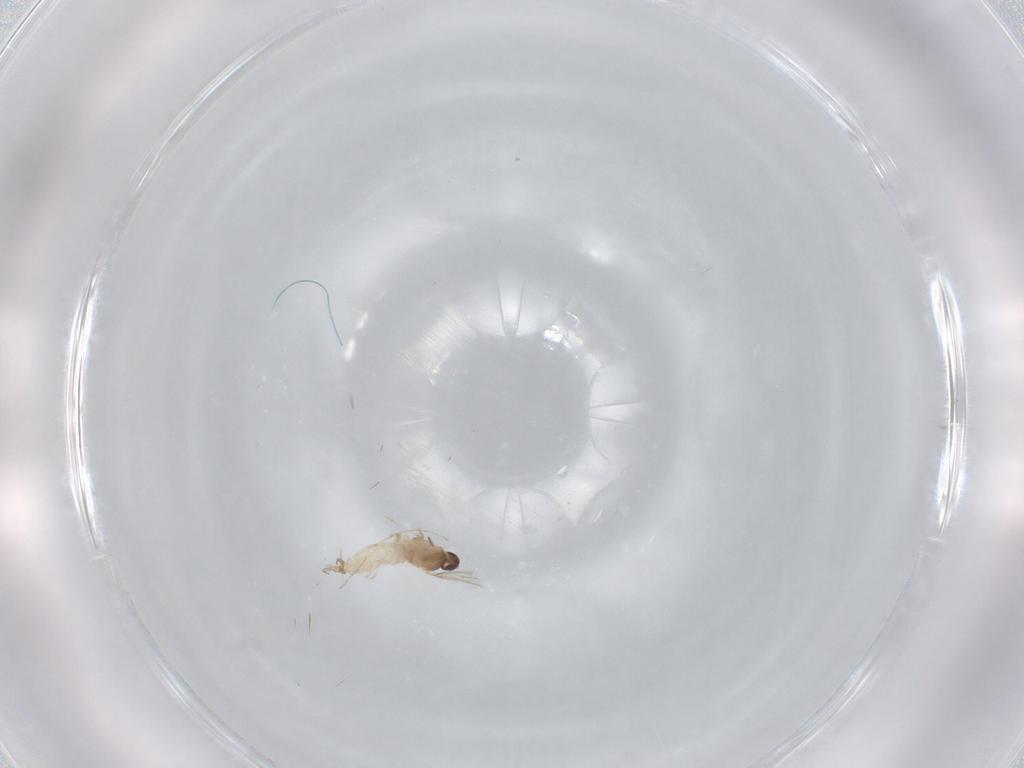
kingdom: Animalia
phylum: Arthropoda
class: Insecta
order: Diptera
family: Cecidomyiidae
